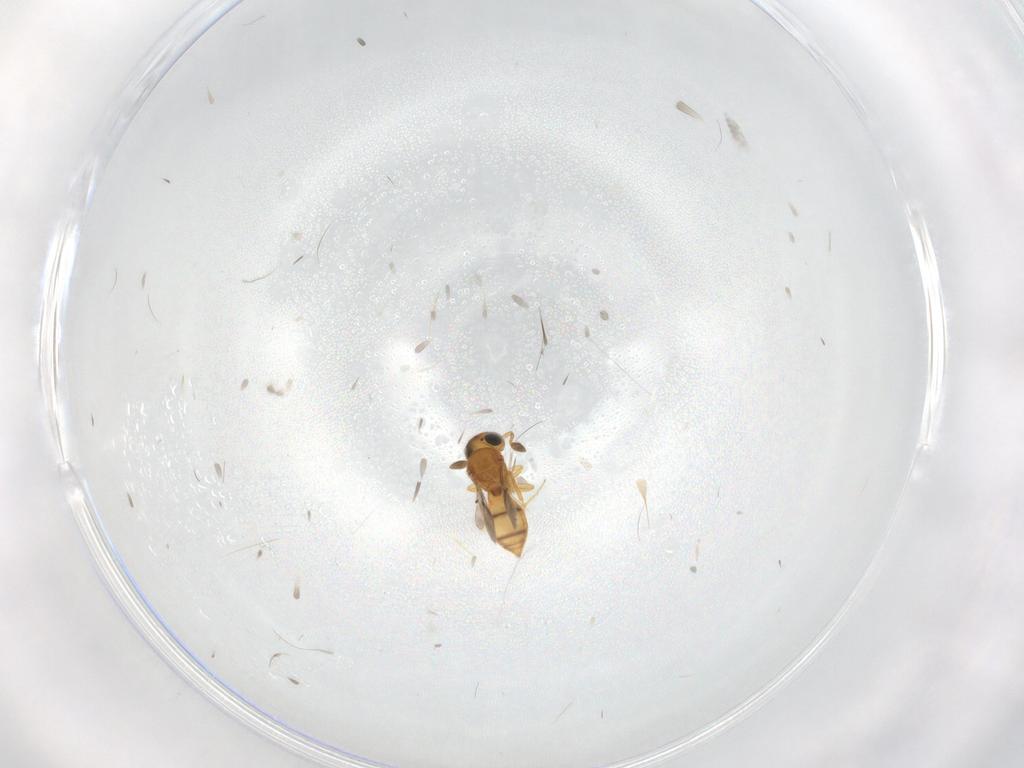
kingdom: Animalia
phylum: Arthropoda
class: Insecta
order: Hymenoptera
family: Scelionidae
